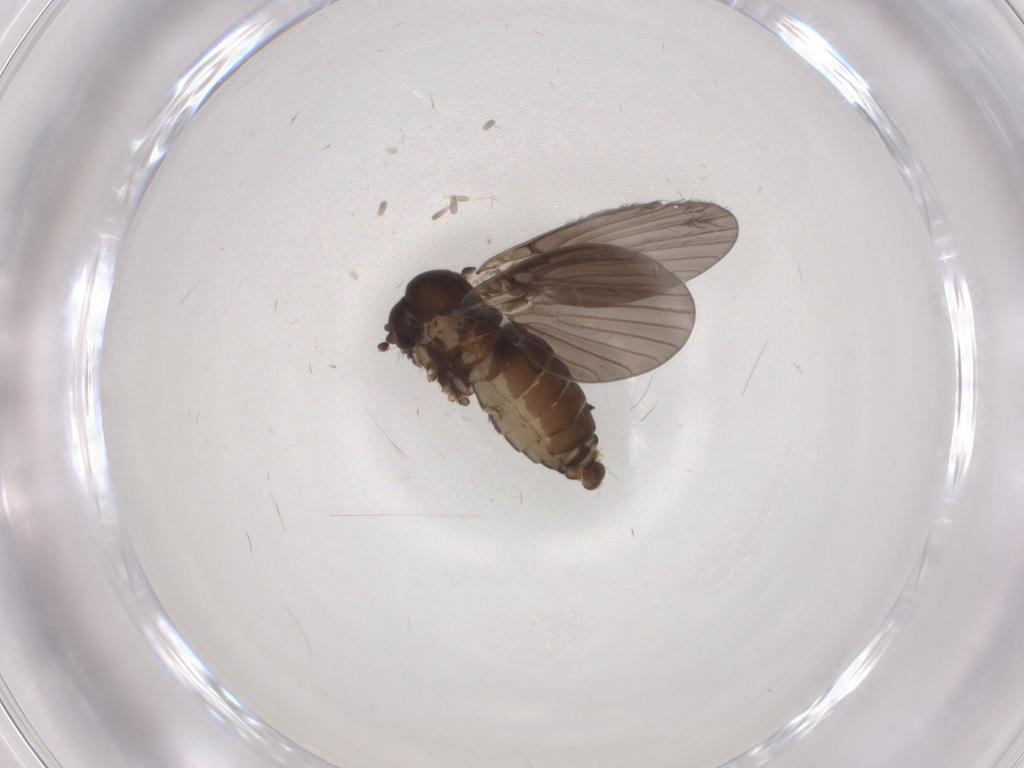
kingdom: Animalia
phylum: Arthropoda
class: Insecta
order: Diptera
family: Psychodidae
